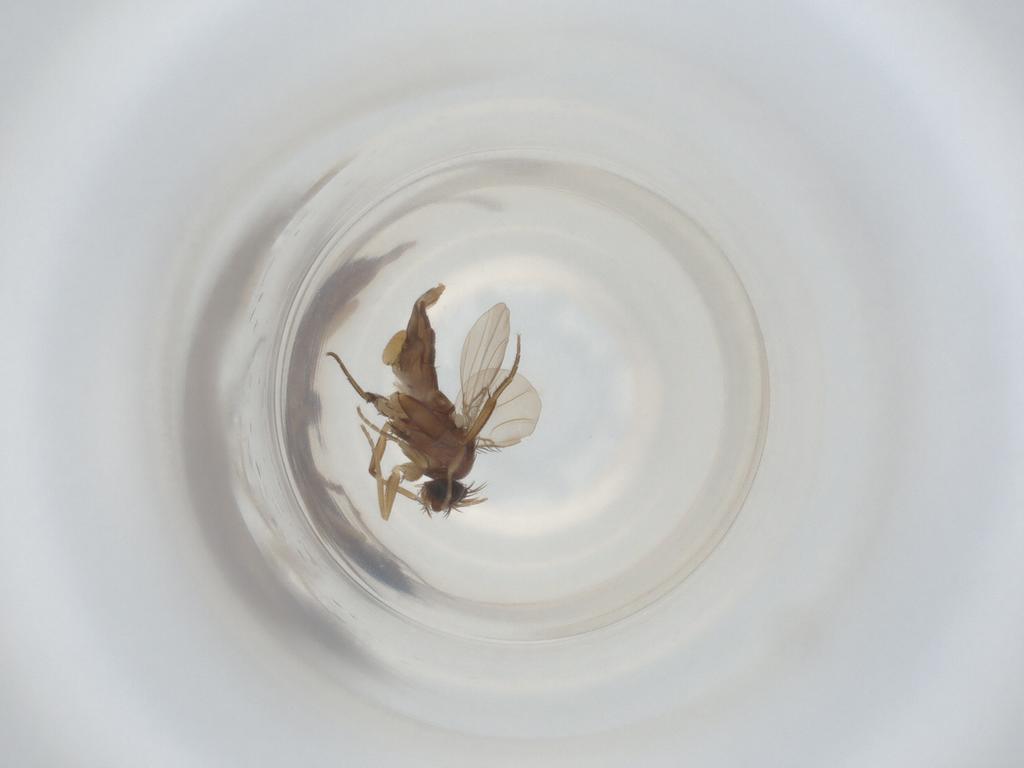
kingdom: Animalia
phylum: Arthropoda
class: Insecta
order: Diptera
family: Phoridae
